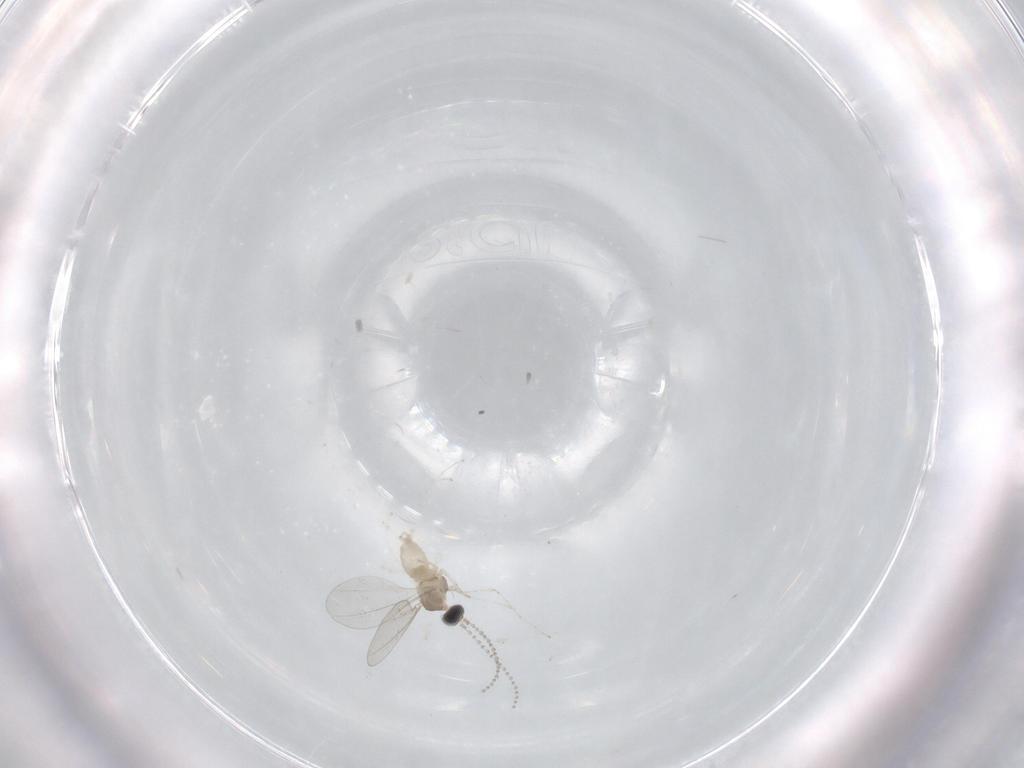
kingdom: Animalia
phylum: Arthropoda
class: Insecta
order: Diptera
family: Cecidomyiidae
